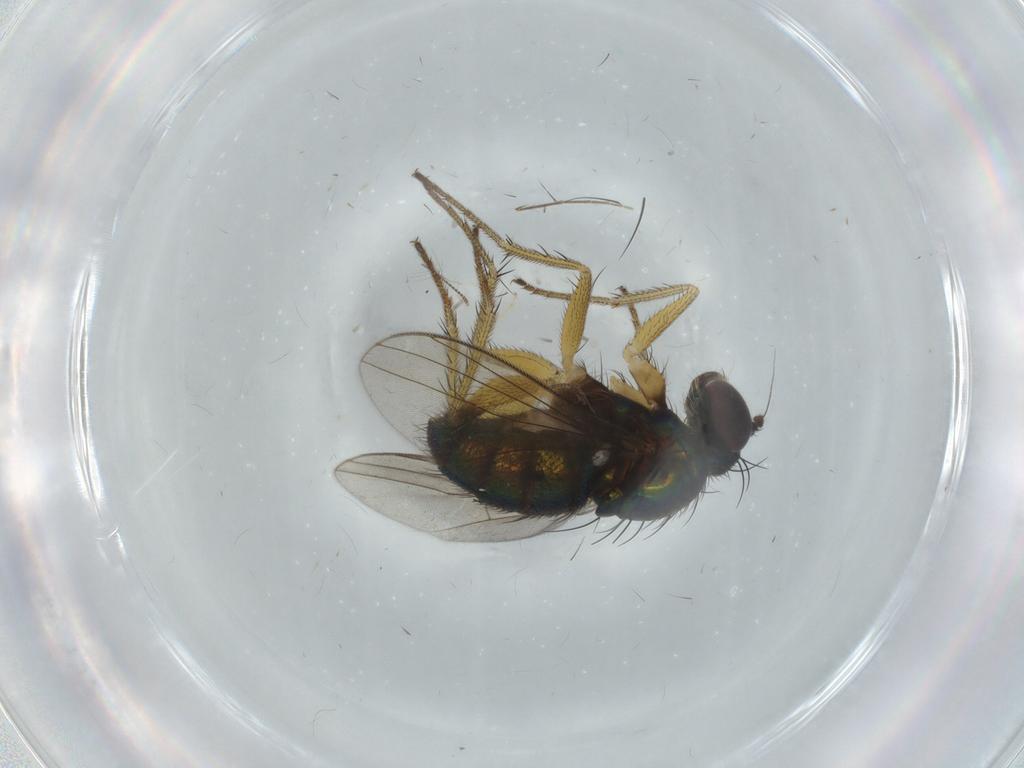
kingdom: Animalia
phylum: Arthropoda
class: Insecta
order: Diptera
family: Dolichopodidae
